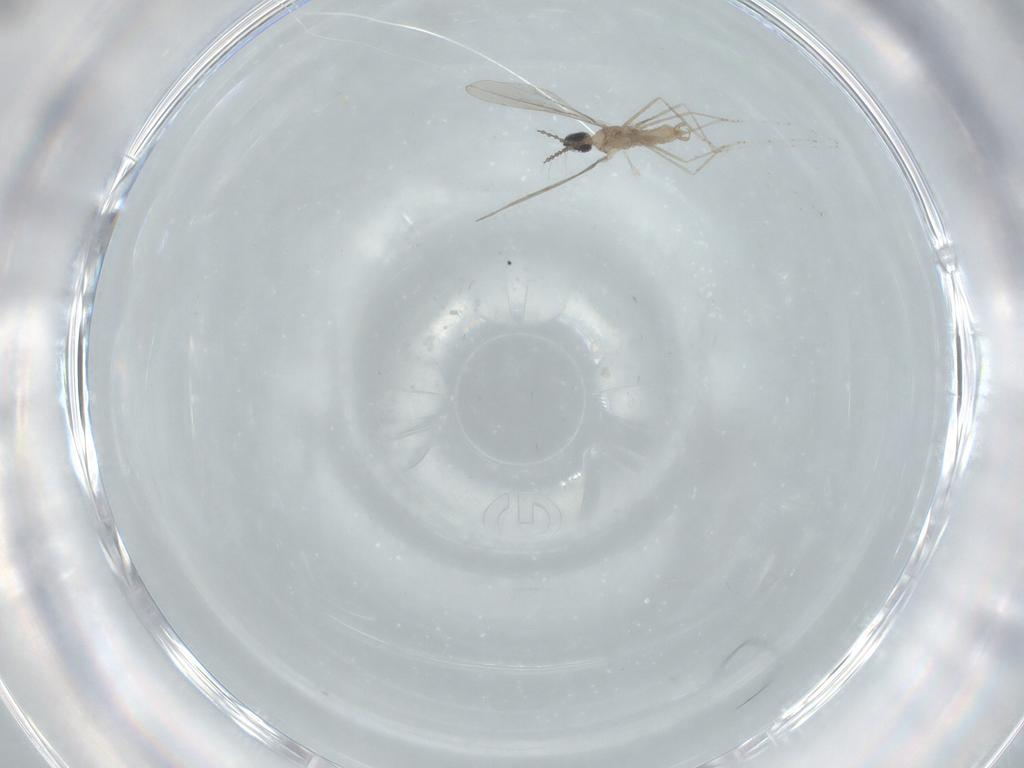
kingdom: Animalia
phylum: Arthropoda
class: Insecta
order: Diptera
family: Cecidomyiidae
